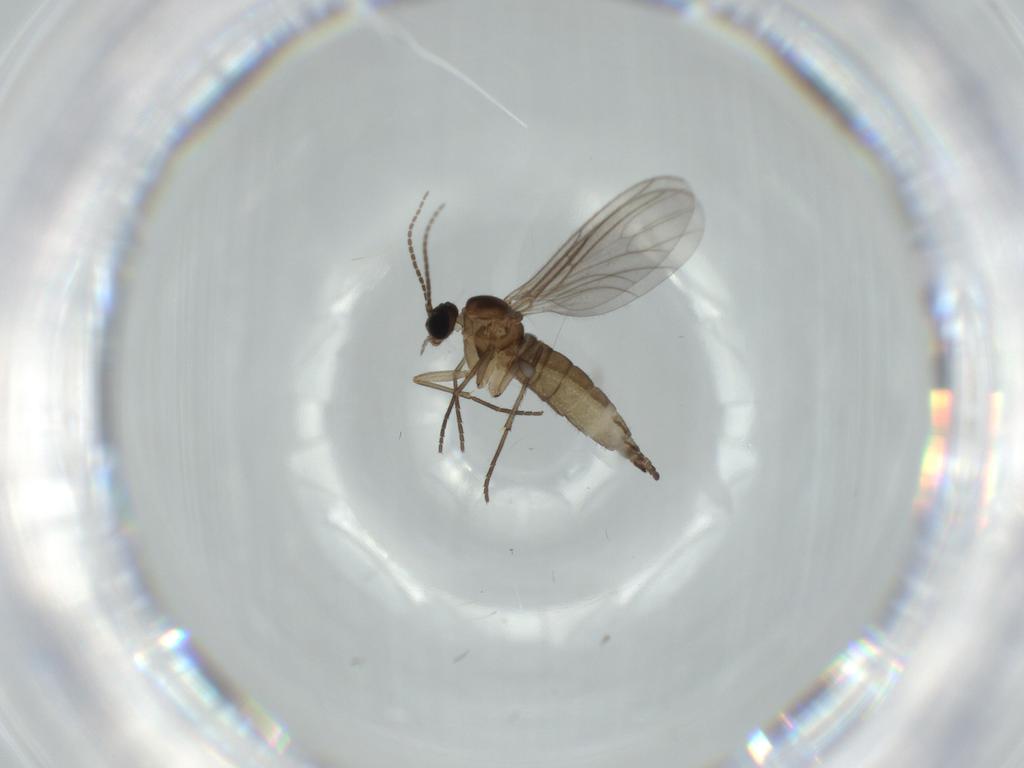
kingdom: Animalia
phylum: Arthropoda
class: Insecta
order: Diptera
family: Sciaridae
